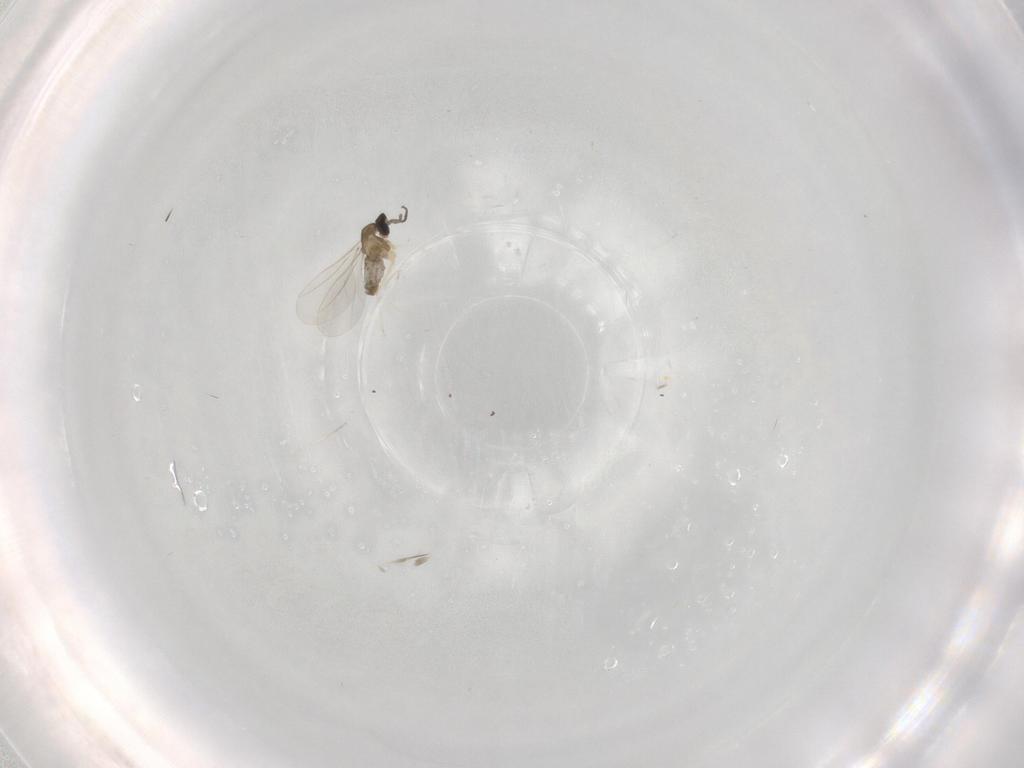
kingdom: Animalia
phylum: Arthropoda
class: Insecta
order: Diptera
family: Cecidomyiidae
